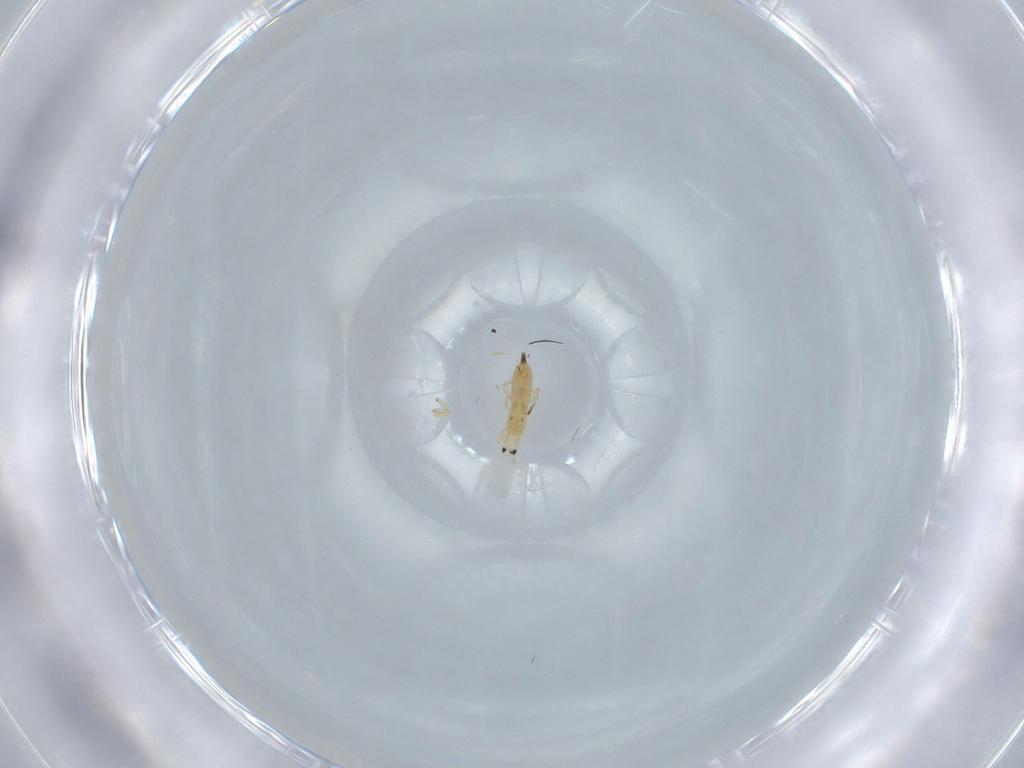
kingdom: Animalia
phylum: Arthropoda
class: Insecta
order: Thysanoptera
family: Phlaeothripidae
